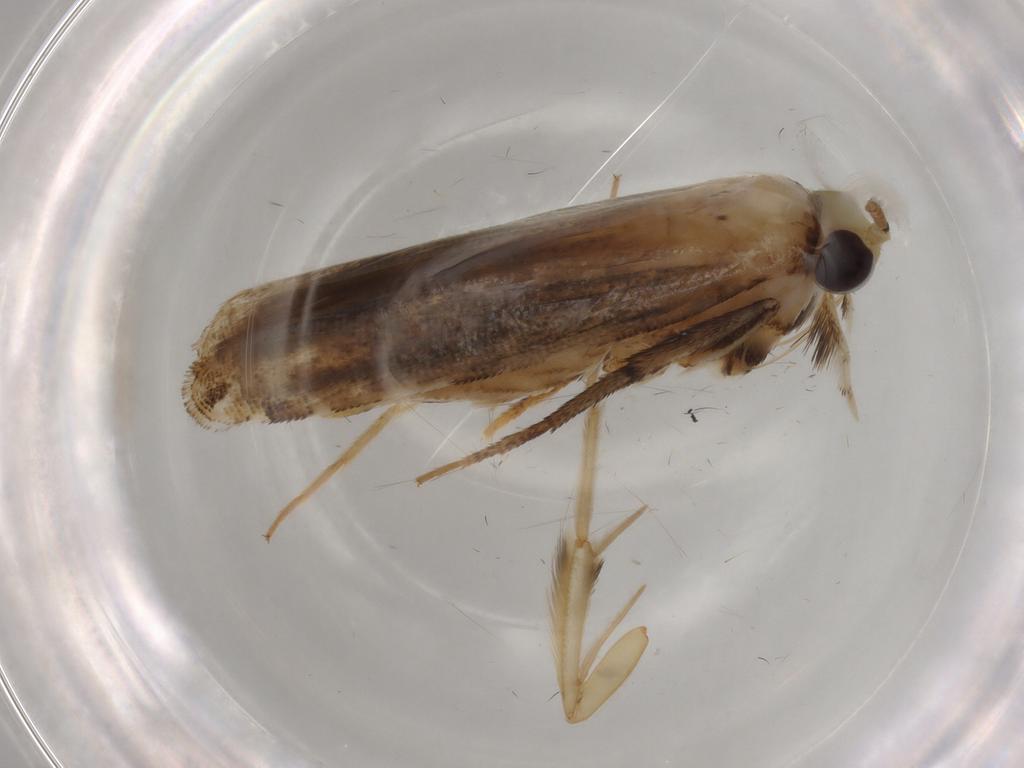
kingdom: Animalia
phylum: Arthropoda
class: Insecta
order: Lepidoptera
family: Gracillariidae
